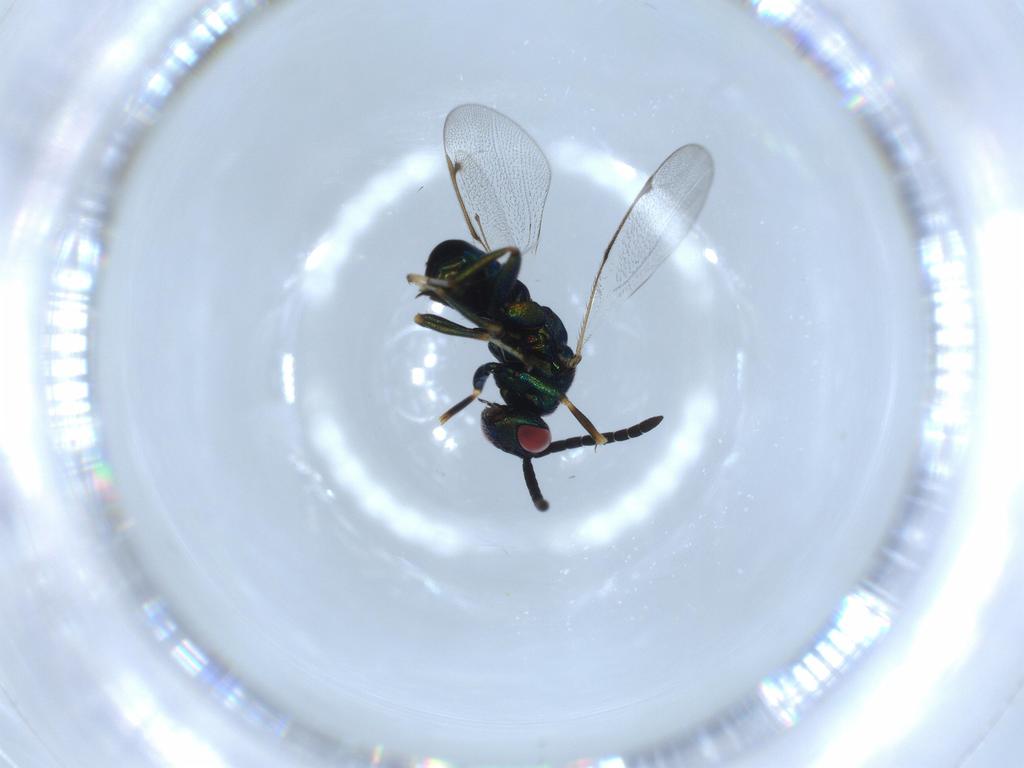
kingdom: Animalia
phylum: Arthropoda
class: Insecta
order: Hymenoptera
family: Torymidae
